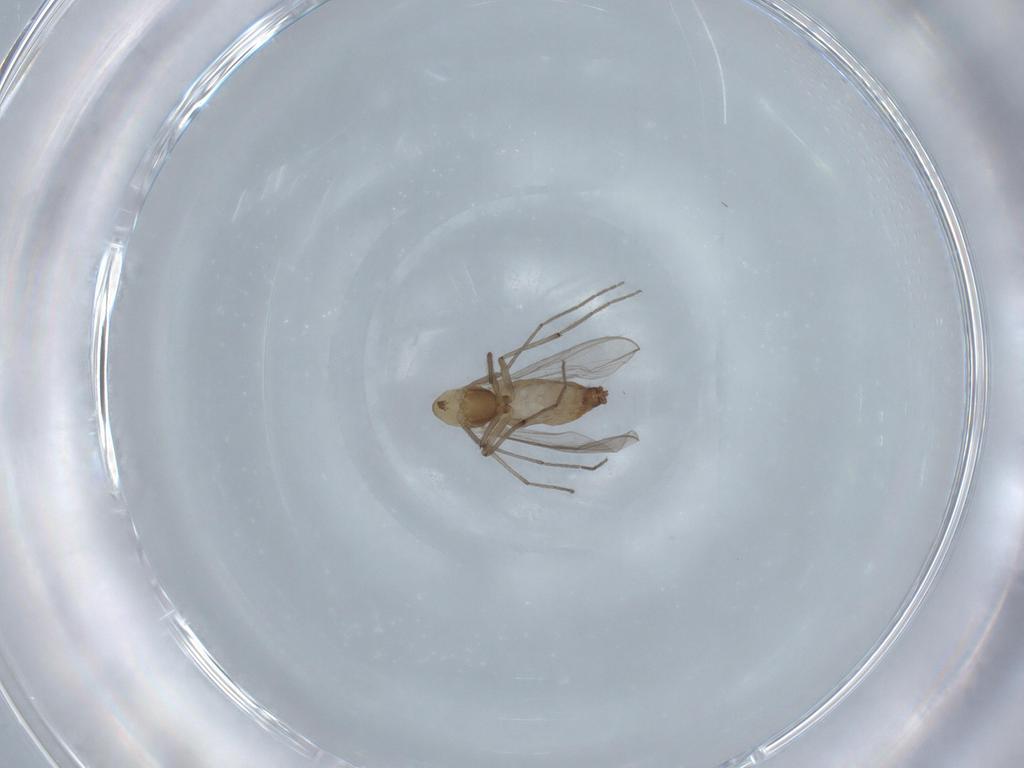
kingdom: Animalia
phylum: Arthropoda
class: Insecta
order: Diptera
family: Chironomidae
